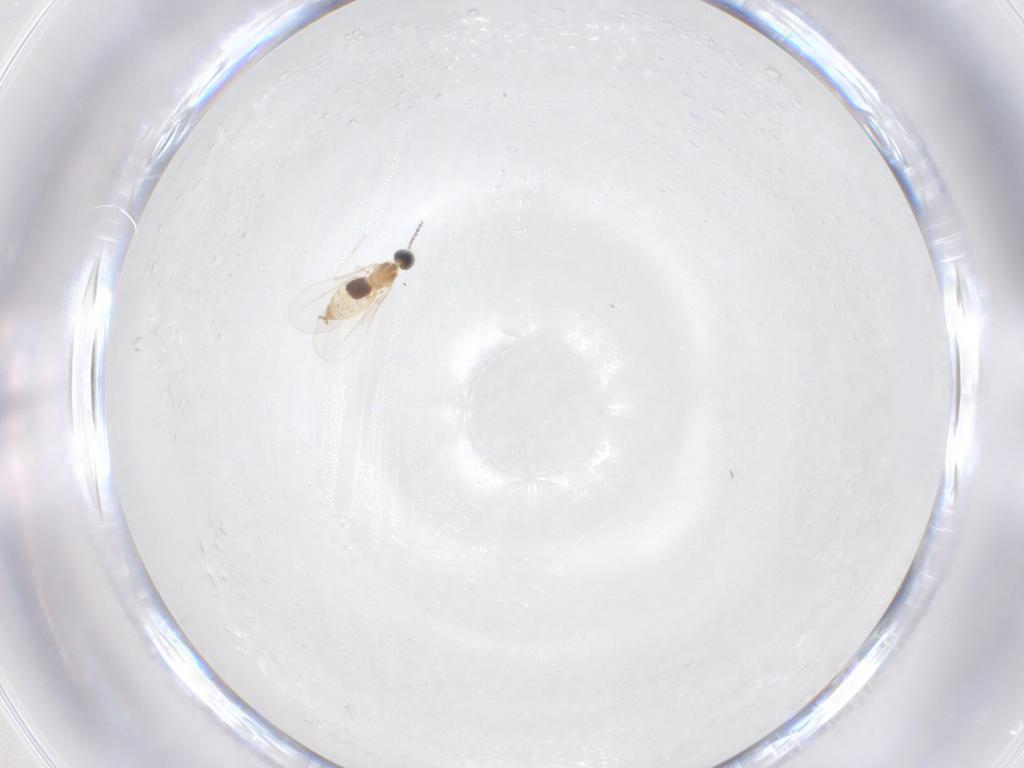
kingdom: Animalia
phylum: Arthropoda
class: Insecta
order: Diptera
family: Cecidomyiidae
